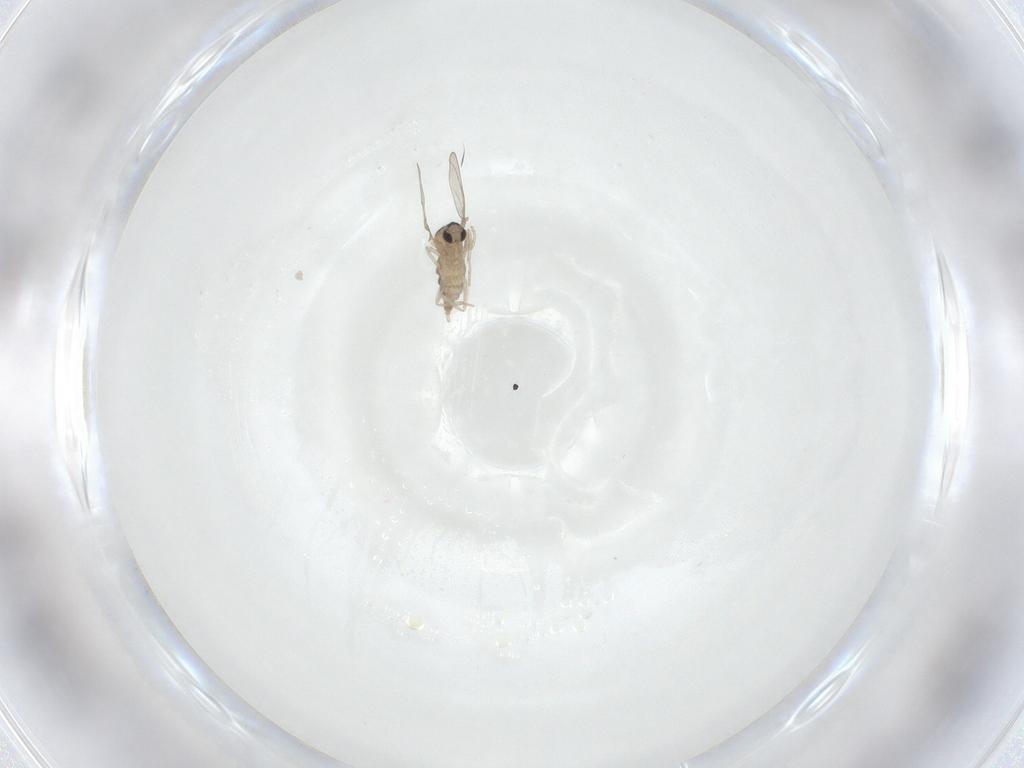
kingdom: Animalia
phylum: Arthropoda
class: Insecta
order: Diptera
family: Cecidomyiidae
